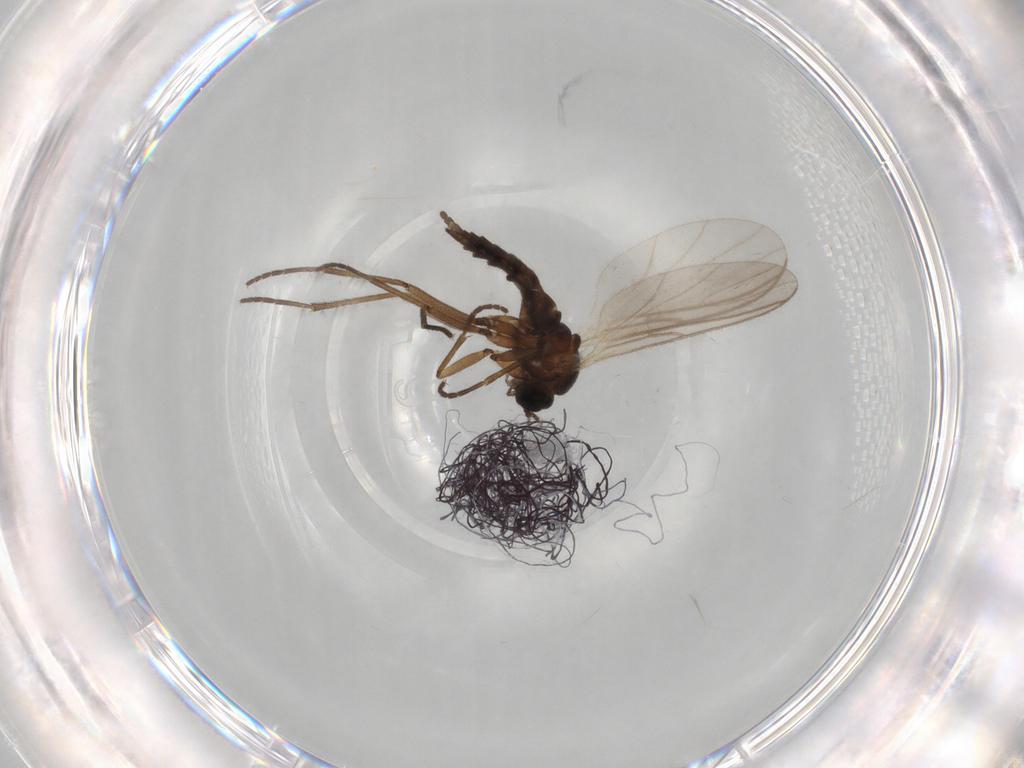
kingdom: Animalia
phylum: Arthropoda
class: Insecta
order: Diptera
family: Sciaridae
